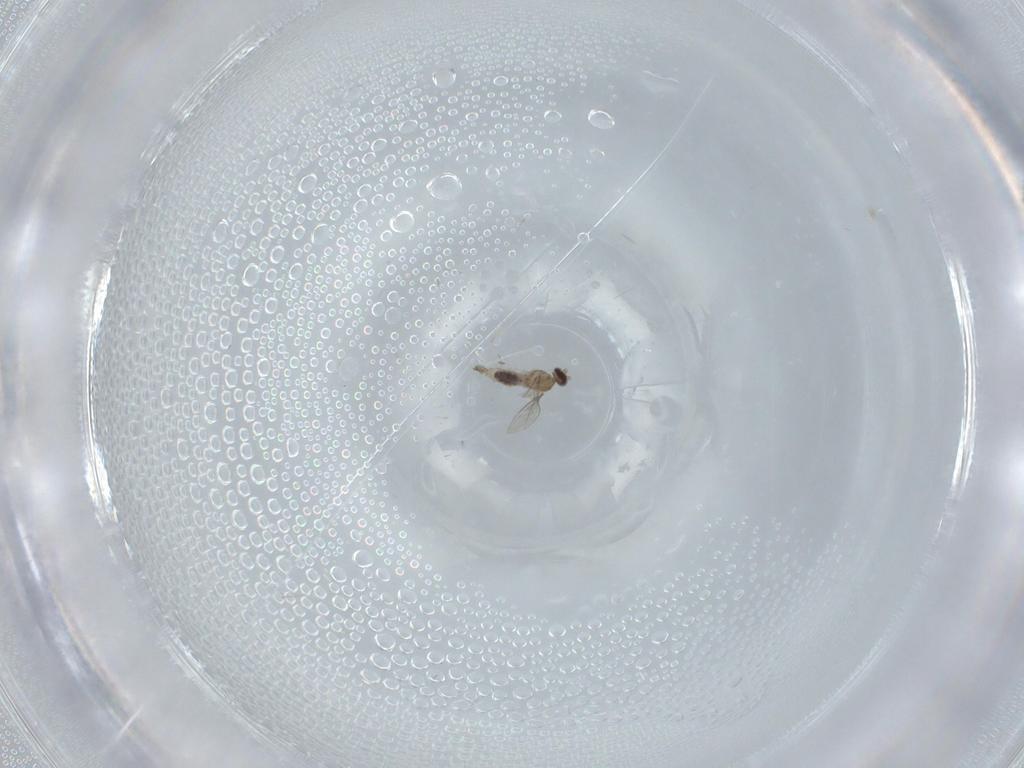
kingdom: Animalia
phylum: Arthropoda
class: Insecta
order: Diptera
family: Cecidomyiidae
